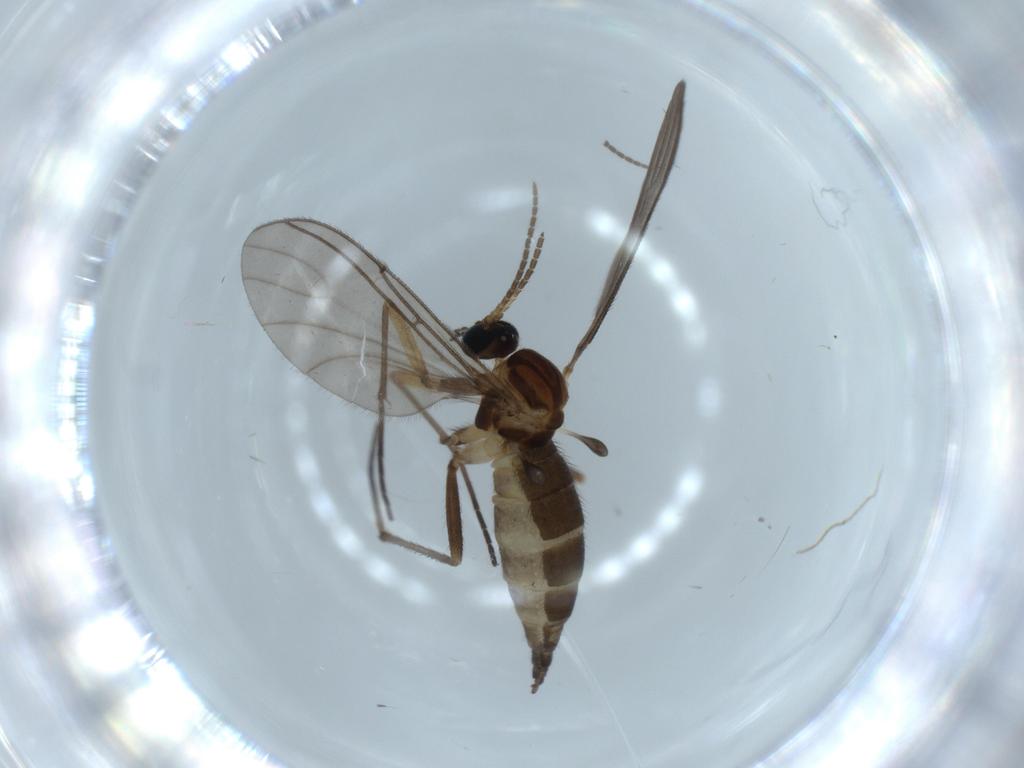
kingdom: Animalia
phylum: Arthropoda
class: Insecta
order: Diptera
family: Sciaridae
